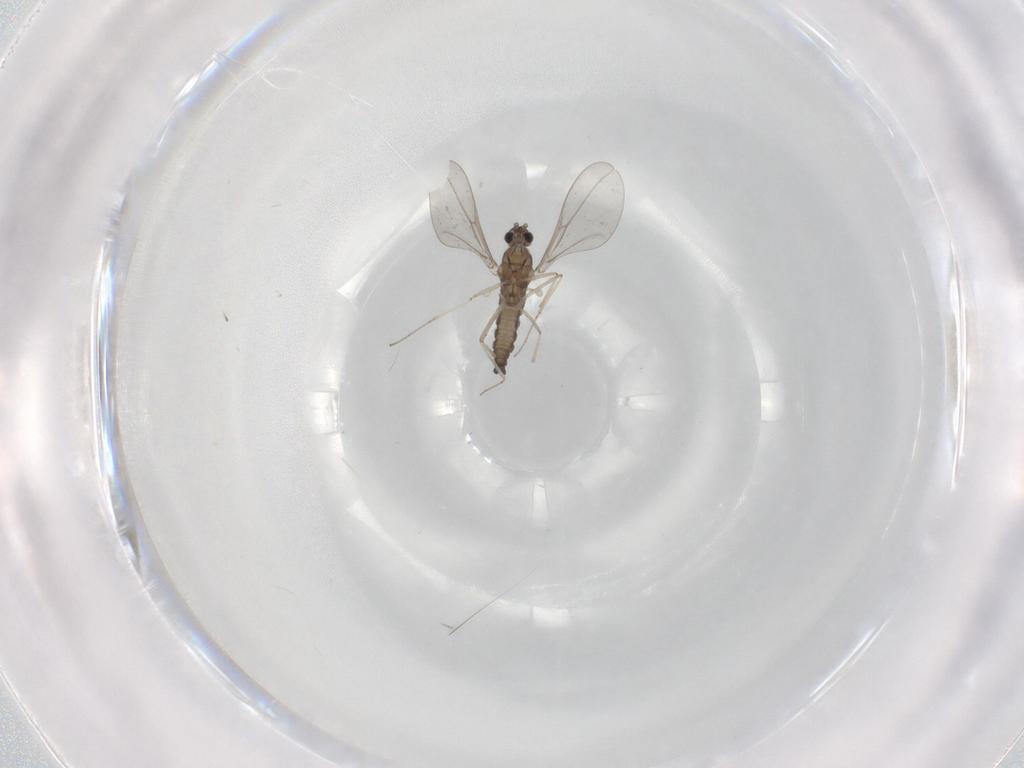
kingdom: Animalia
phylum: Arthropoda
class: Insecta
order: Diptera
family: Cecidomyiidae
